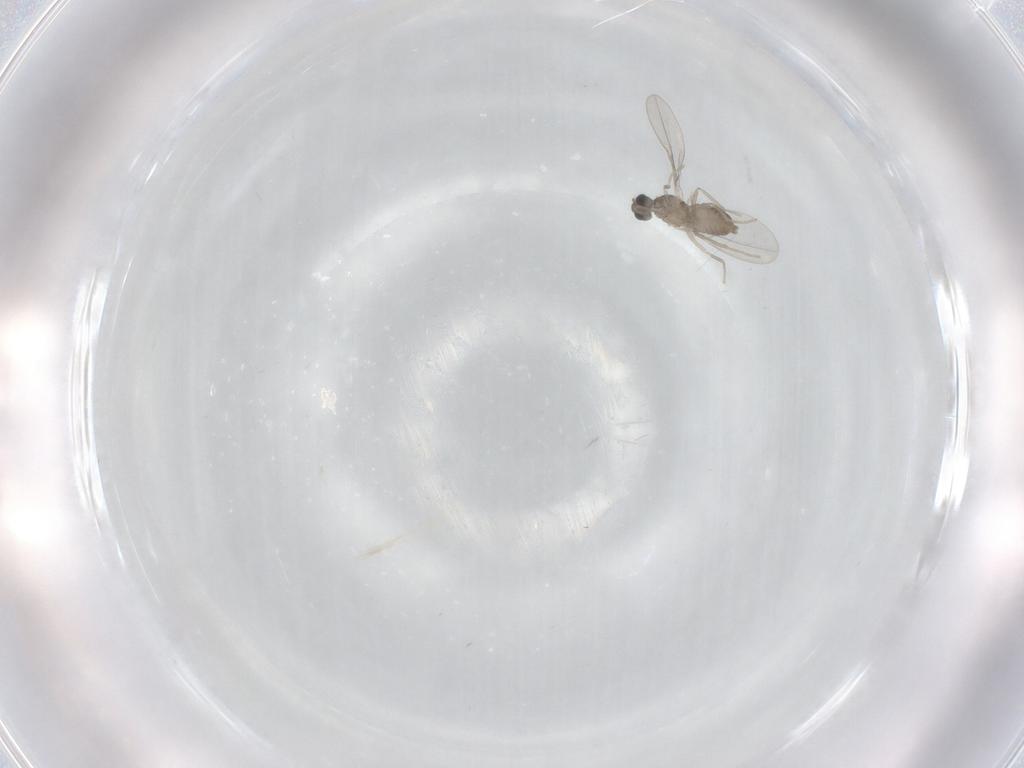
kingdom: Animalia
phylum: Arthropoda
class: Insecta
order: Diptera
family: Cecidomyiidae
